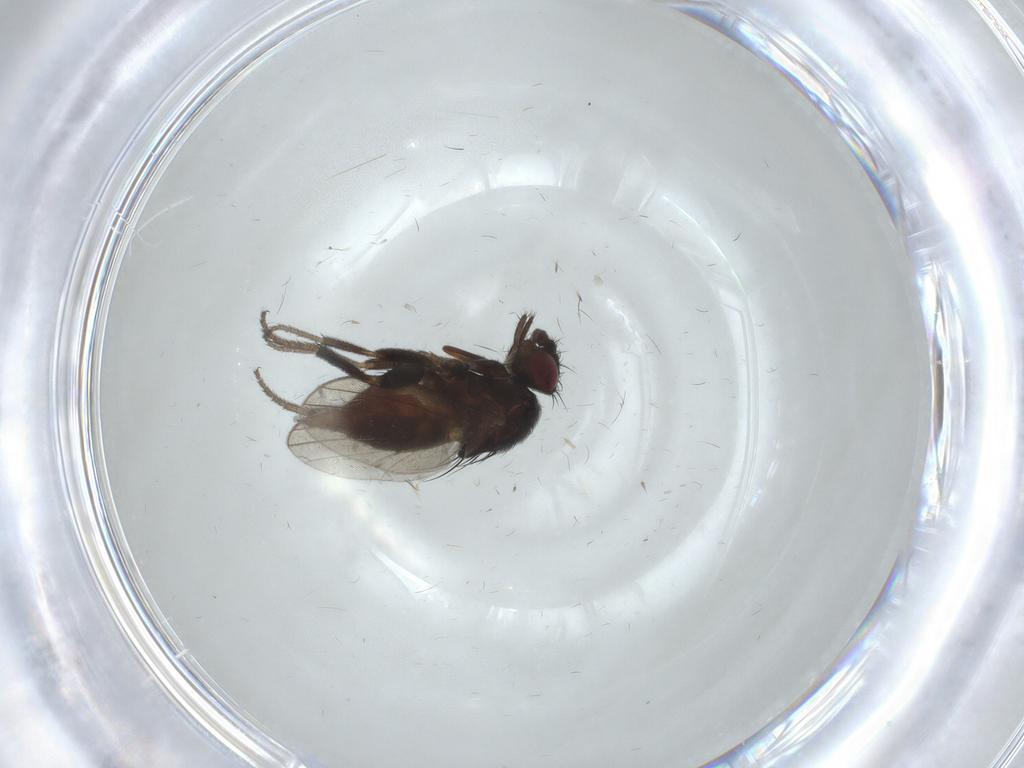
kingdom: Animalia
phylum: Arthropoda
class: Insecta
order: Diptera
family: Milichiidae
